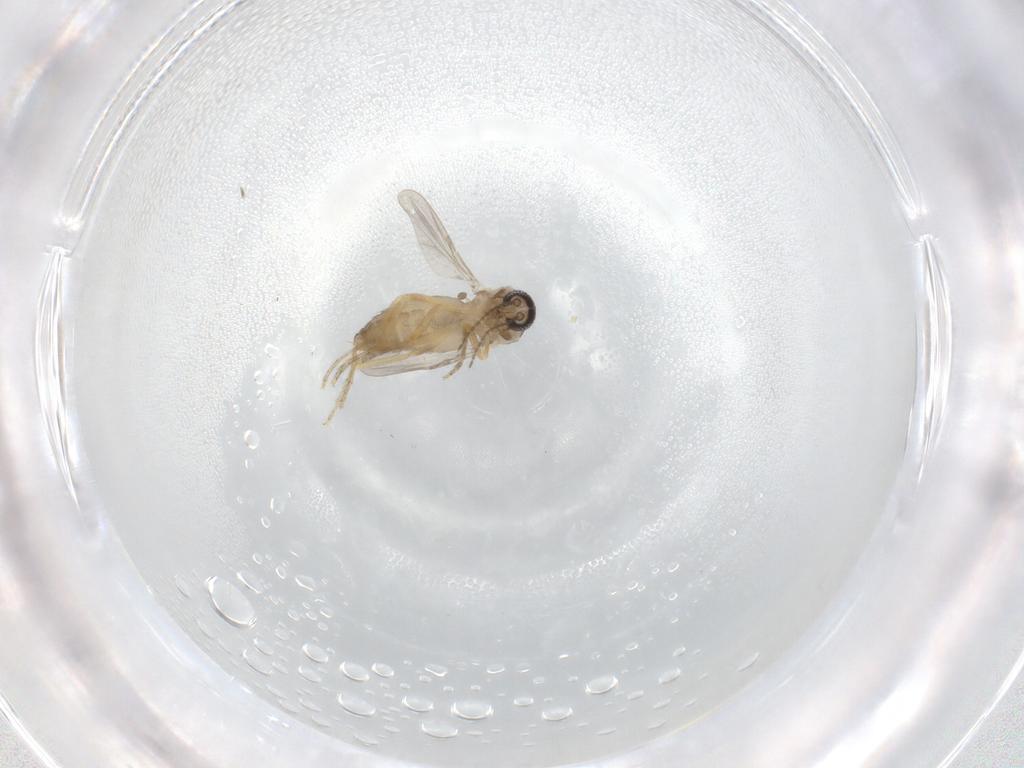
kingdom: Animalia
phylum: Arthropoda
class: Insecta
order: Diptera
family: Ceratopogonidae
